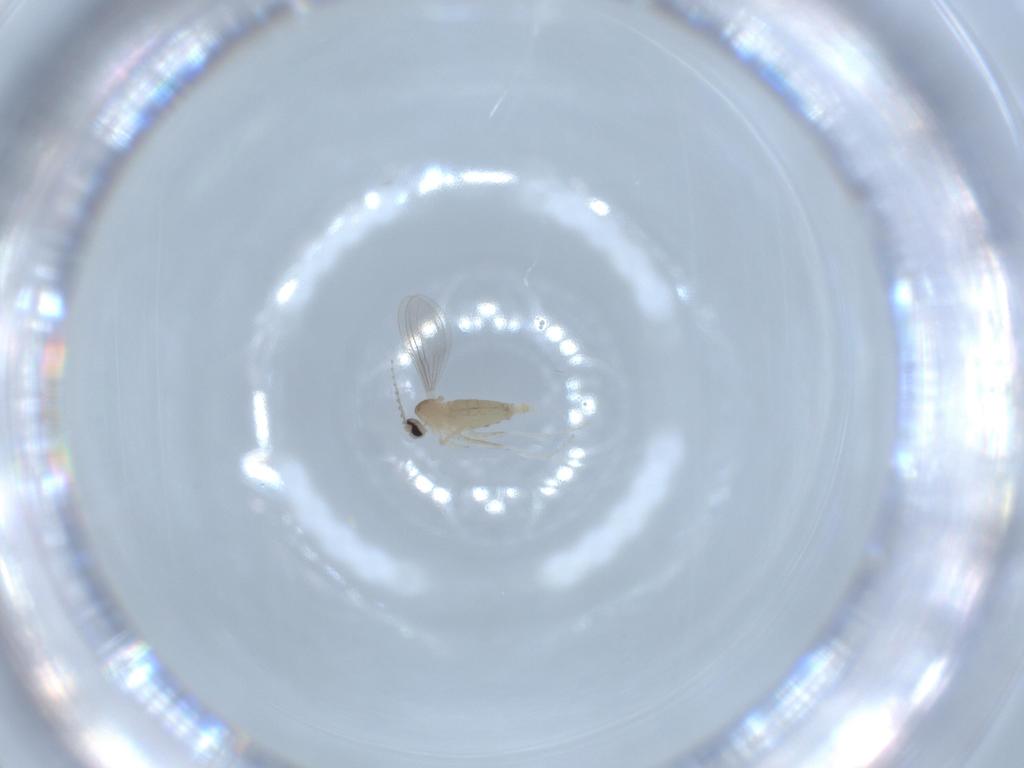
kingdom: Animalia
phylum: Arthropoda
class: Insecta
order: Diptera
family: Cecidomyiidae
